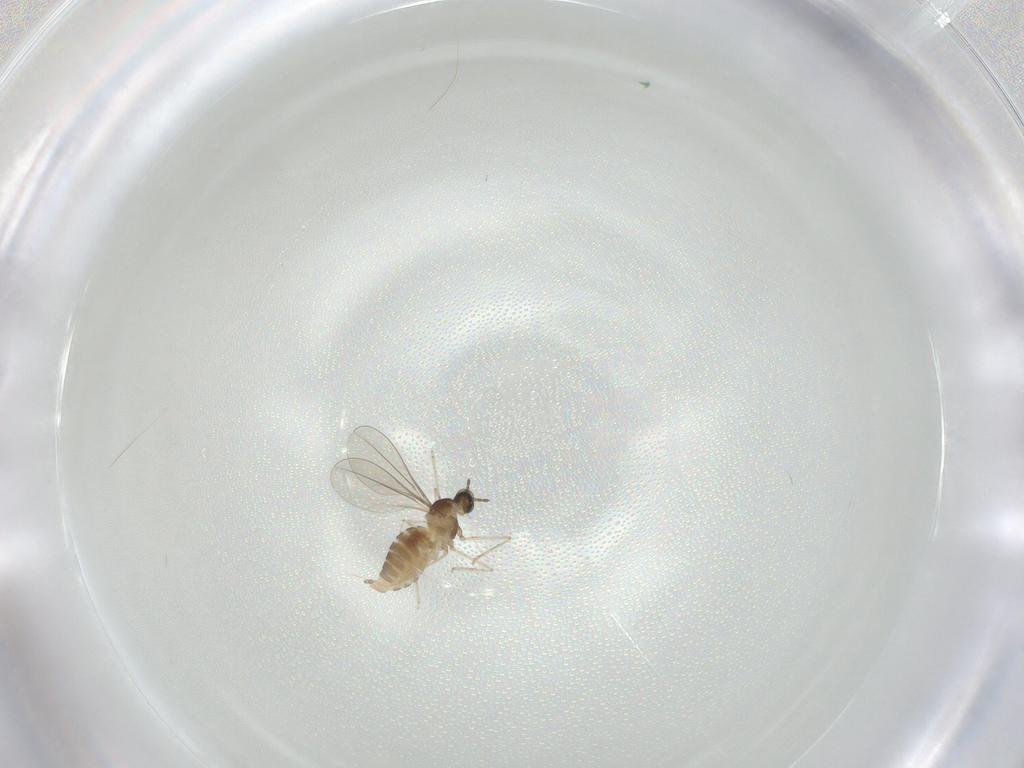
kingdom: Animalia
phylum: Arthropoda
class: Insecta
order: Diptera
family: Cecidomyiidae
